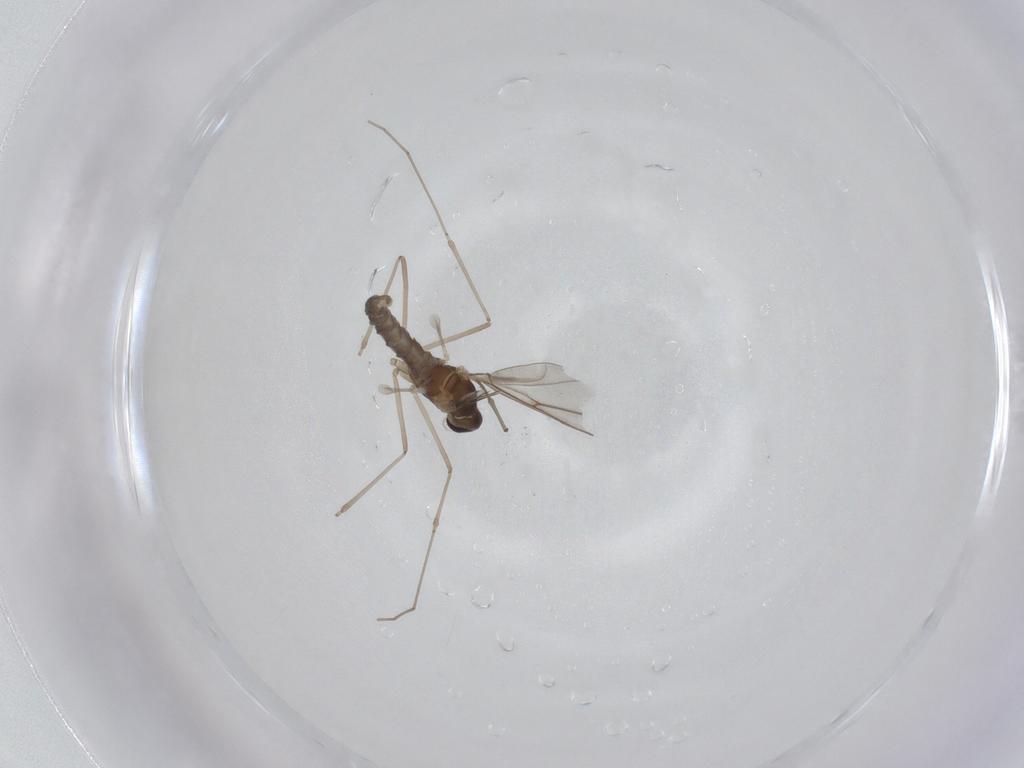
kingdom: Animalia
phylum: Arthropoda
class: Insecta
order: Diptera
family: Cecidomyiidae
